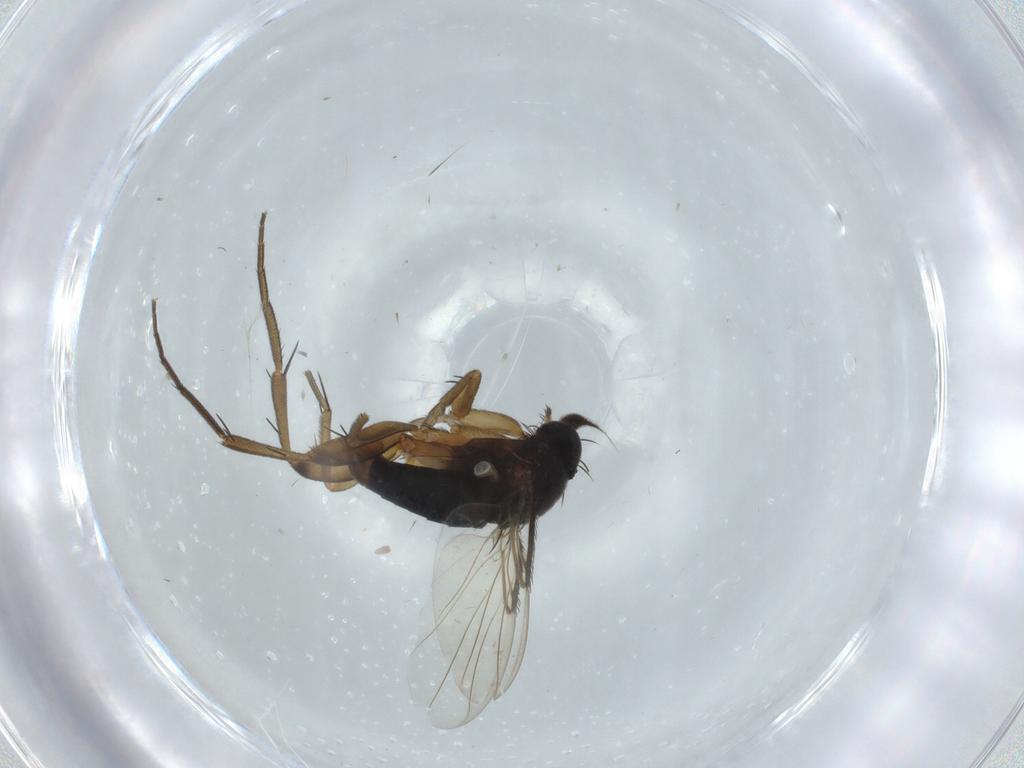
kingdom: Animalia
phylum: Arthropoda
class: Insecta
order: Diptera
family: Phoridae
